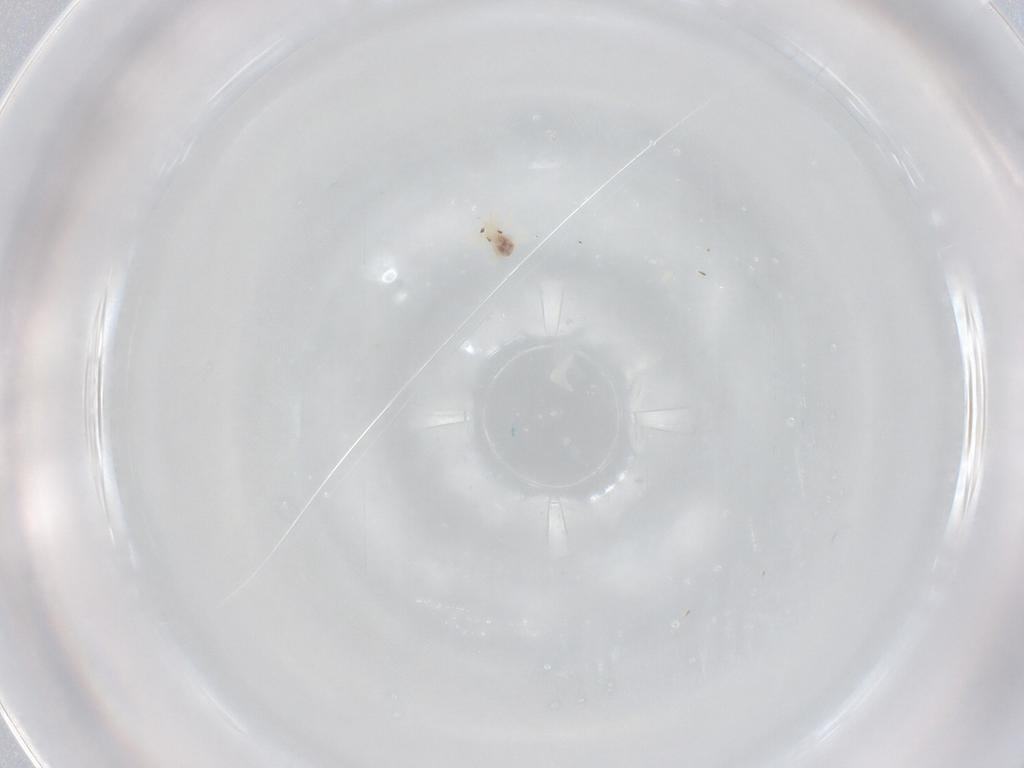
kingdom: Animalia
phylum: Arthropoda
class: Arachnida
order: Trombidiformes
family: Anystidae
